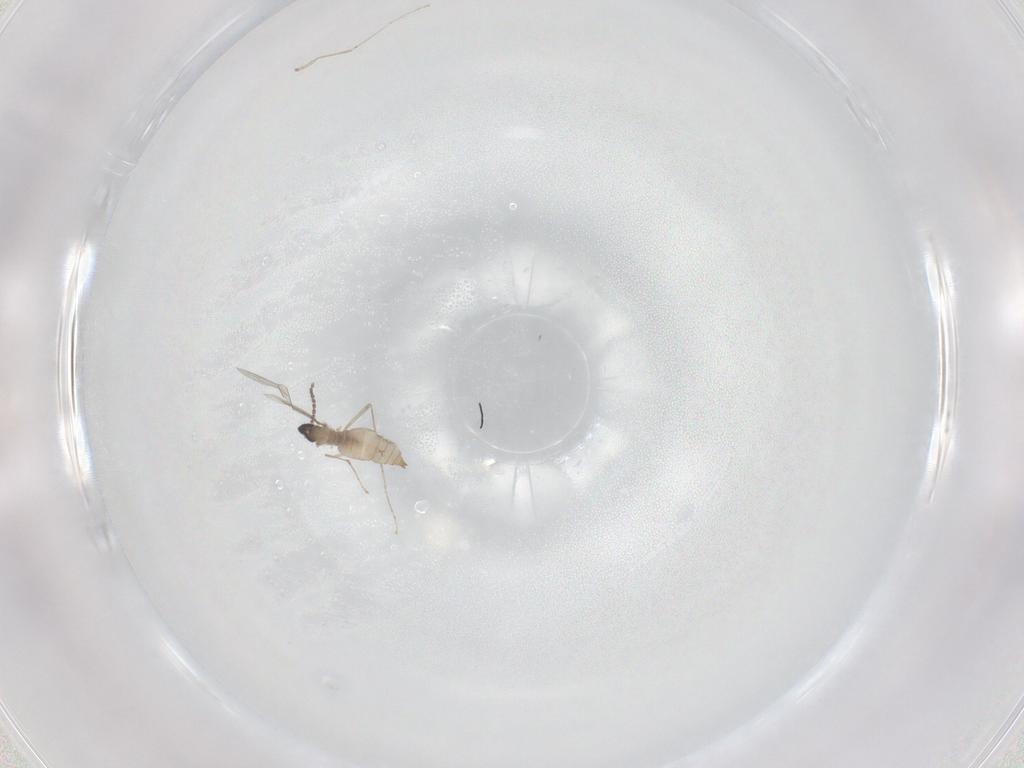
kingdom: Animalia
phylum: Arthropoda
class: Insecta
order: Diptera
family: Cecidomyiidae
